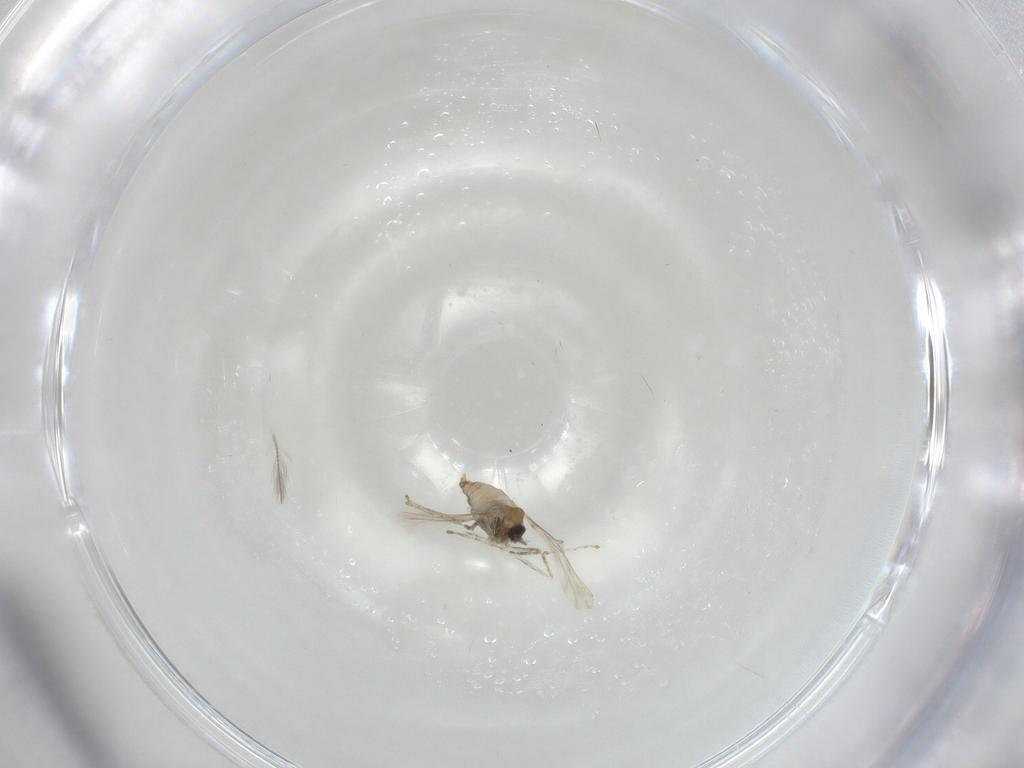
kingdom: Animalia
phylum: Arthropoda
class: Insecta
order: Diptera
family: Cecidomyiidae
